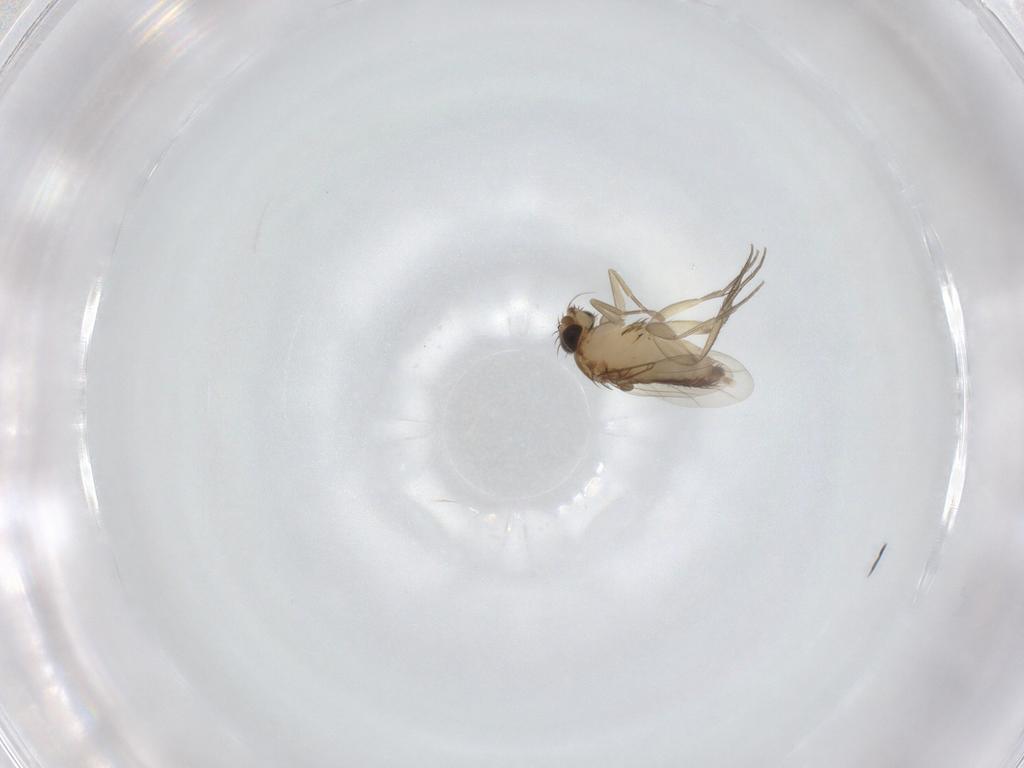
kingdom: Animalia
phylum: Arthropoda
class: Insecta
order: Diptera
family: Phoridae
